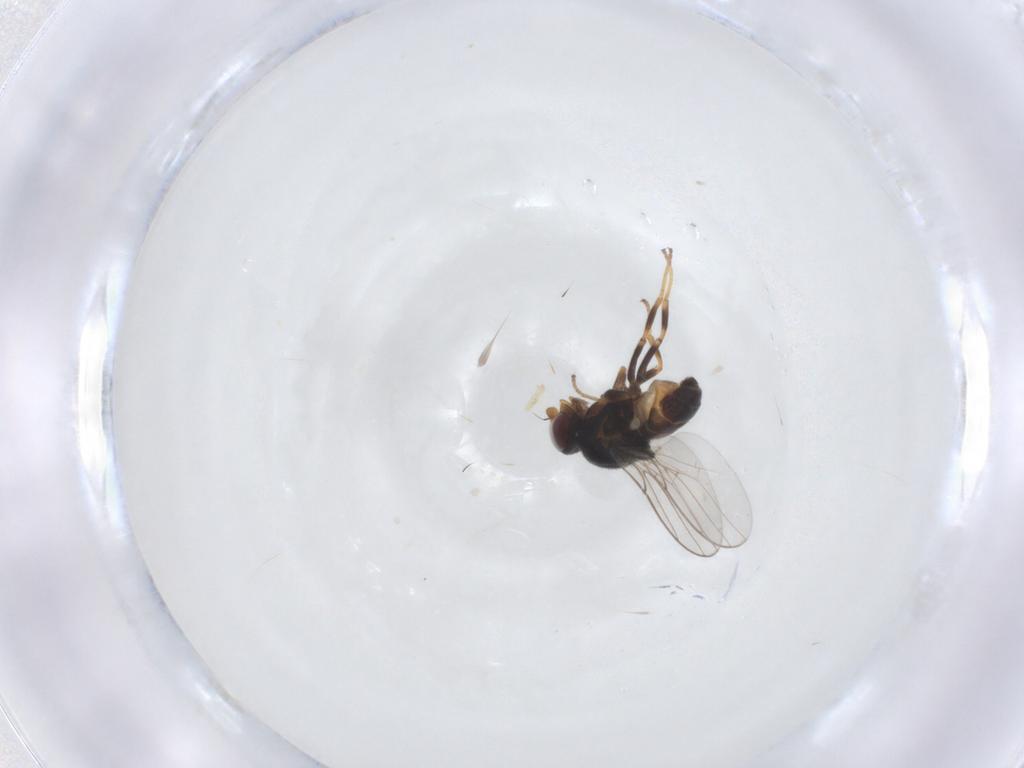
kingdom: Animalia
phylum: Arthropoda
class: Insecta
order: Diptera
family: Chloropidae
